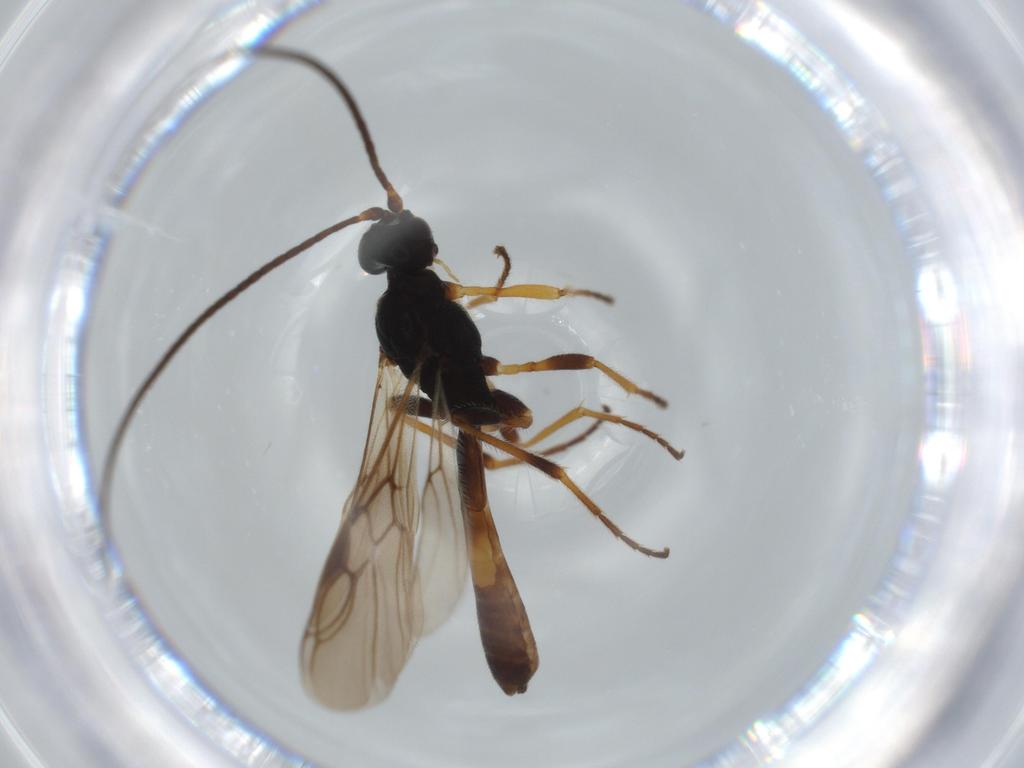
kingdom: Animalia
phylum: Arthropoda
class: Insecta
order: Hymenoptera
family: Braconidae
